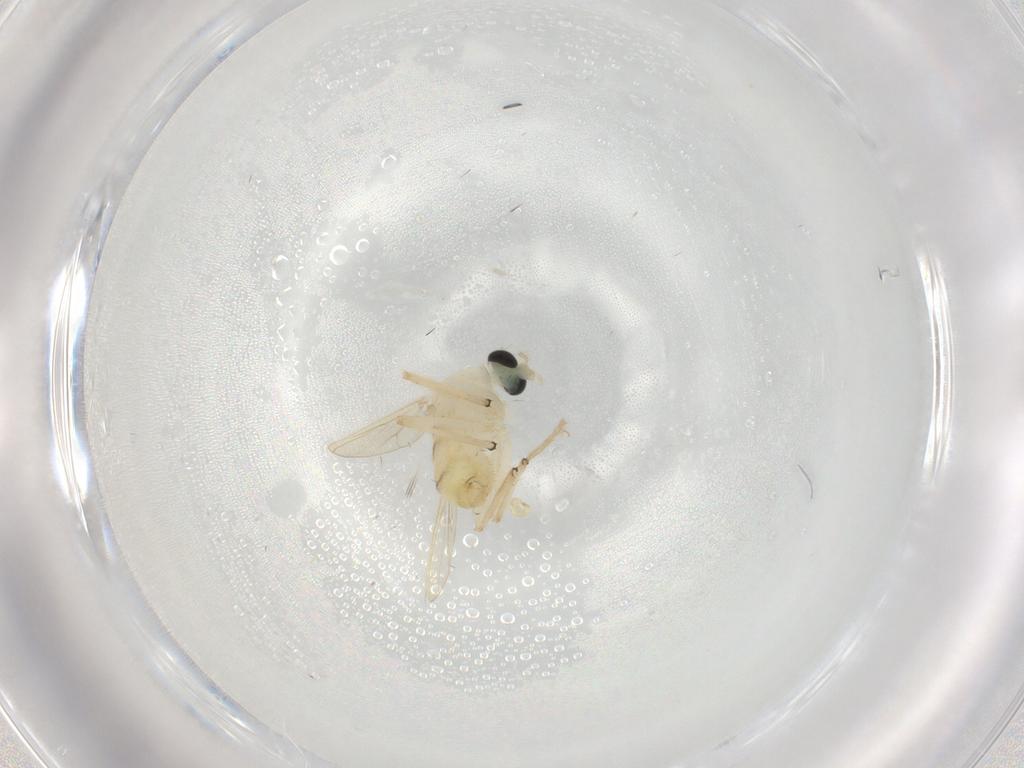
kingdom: Animalia
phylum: Arthropoda
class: Insecta
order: Diptera
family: Chironomidae
